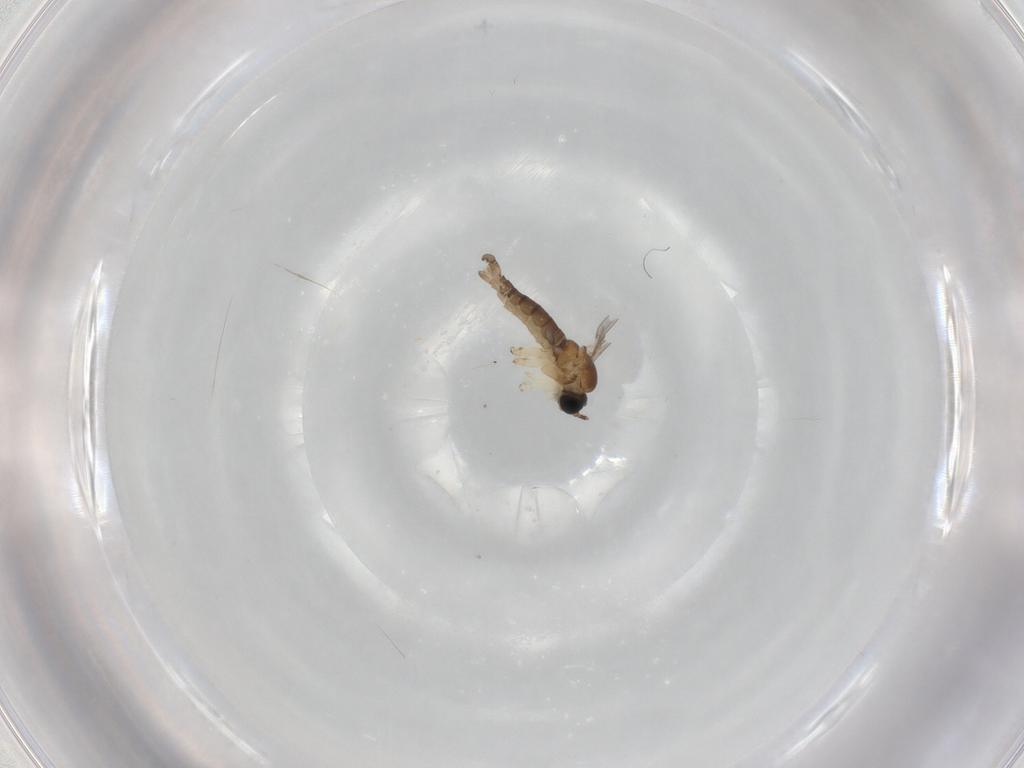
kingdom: Animalia
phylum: Arthropoda
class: Insecta
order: Diptera
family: Sciaridae
